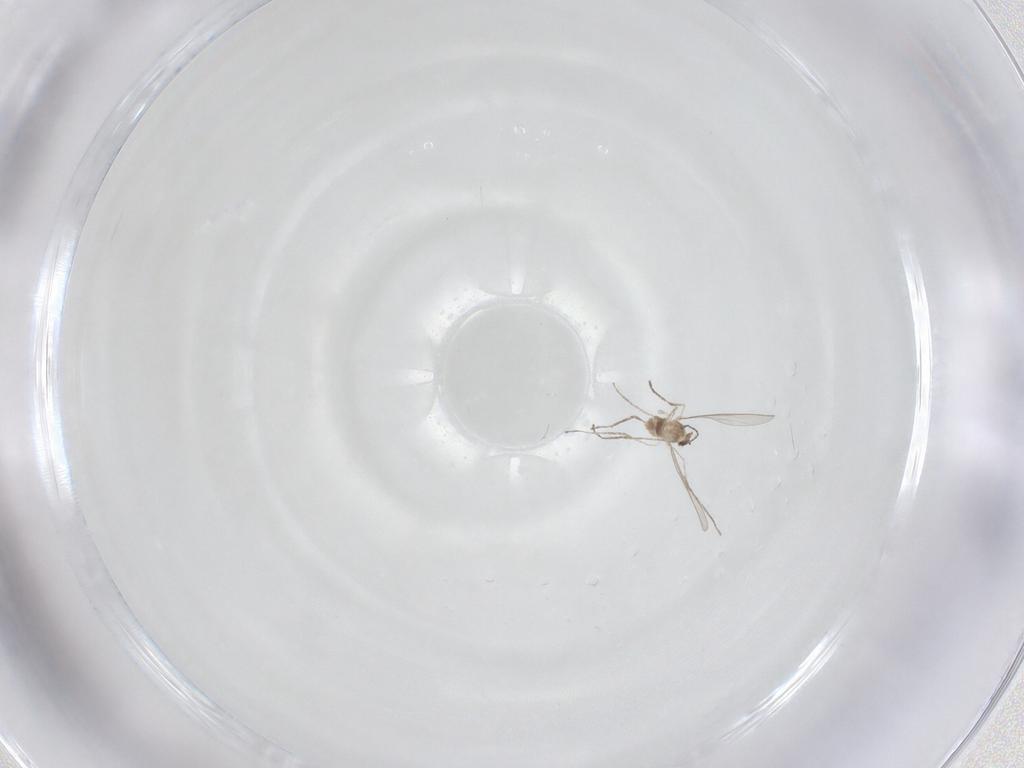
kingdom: Animalia
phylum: Arthropoda
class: Insecta
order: Diptera
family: Cecidomyiidae
